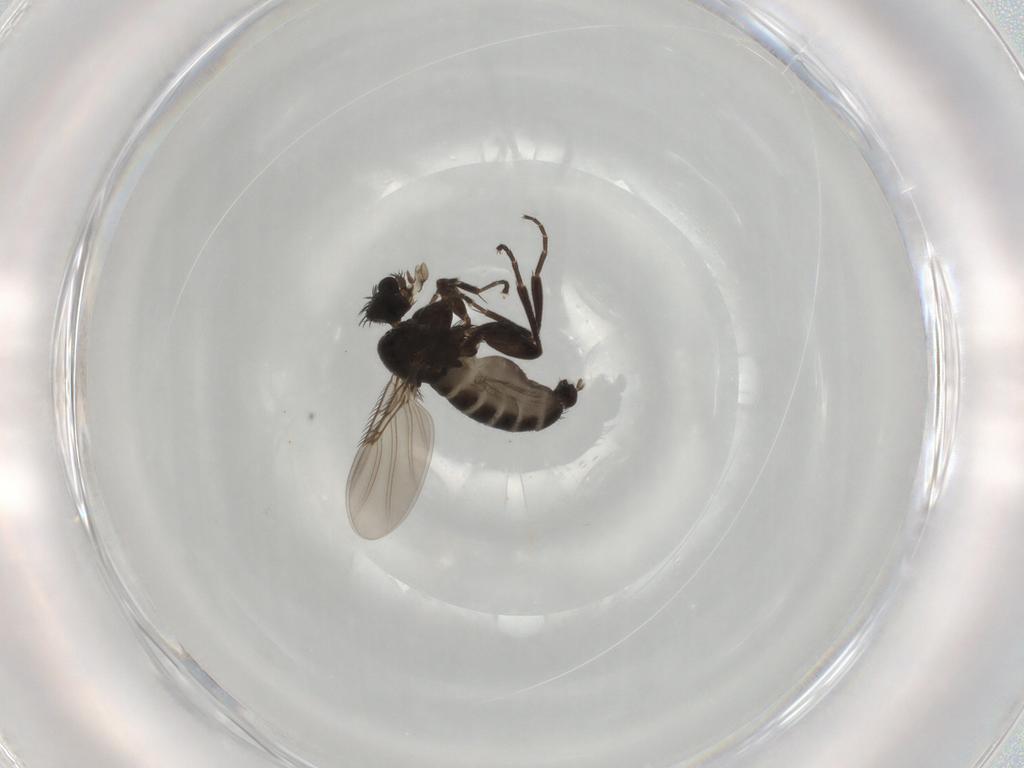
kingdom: Animalia
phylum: Arthropoda
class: Insecta
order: Diptera
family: Phoridae
